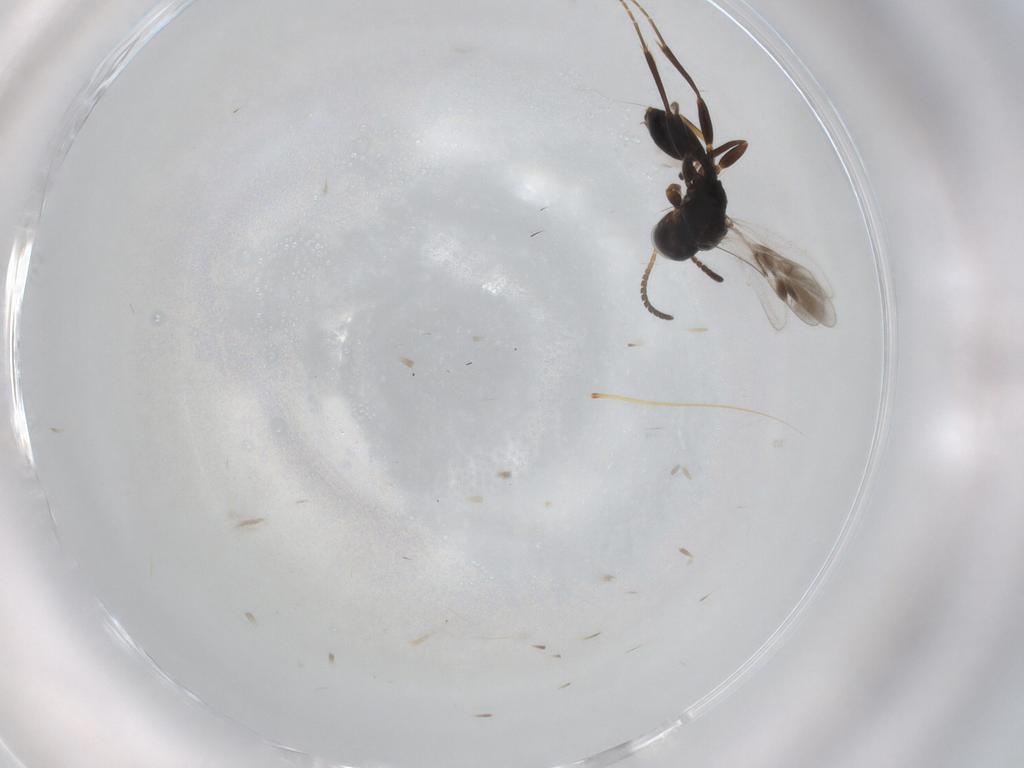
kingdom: Animalia
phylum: Arthropoda
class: Insecta
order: Hymenoptera
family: Braconidae
